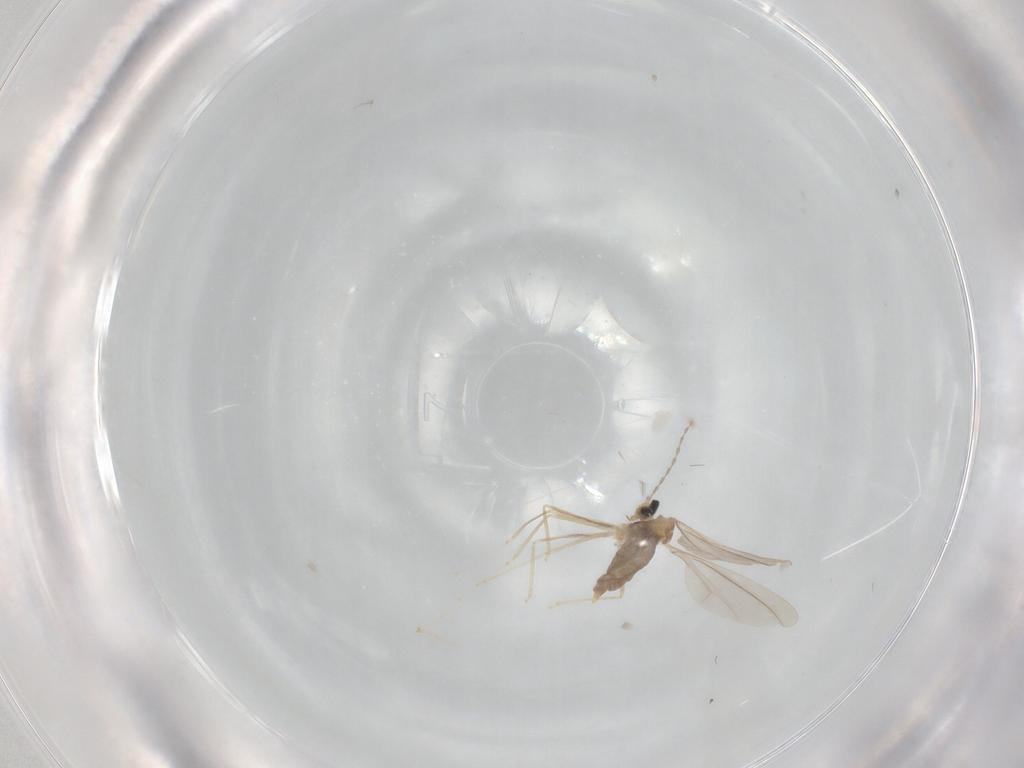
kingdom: Animalia
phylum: Arthropoda
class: Insecta
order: Diptera
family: Cecidomyiidae
